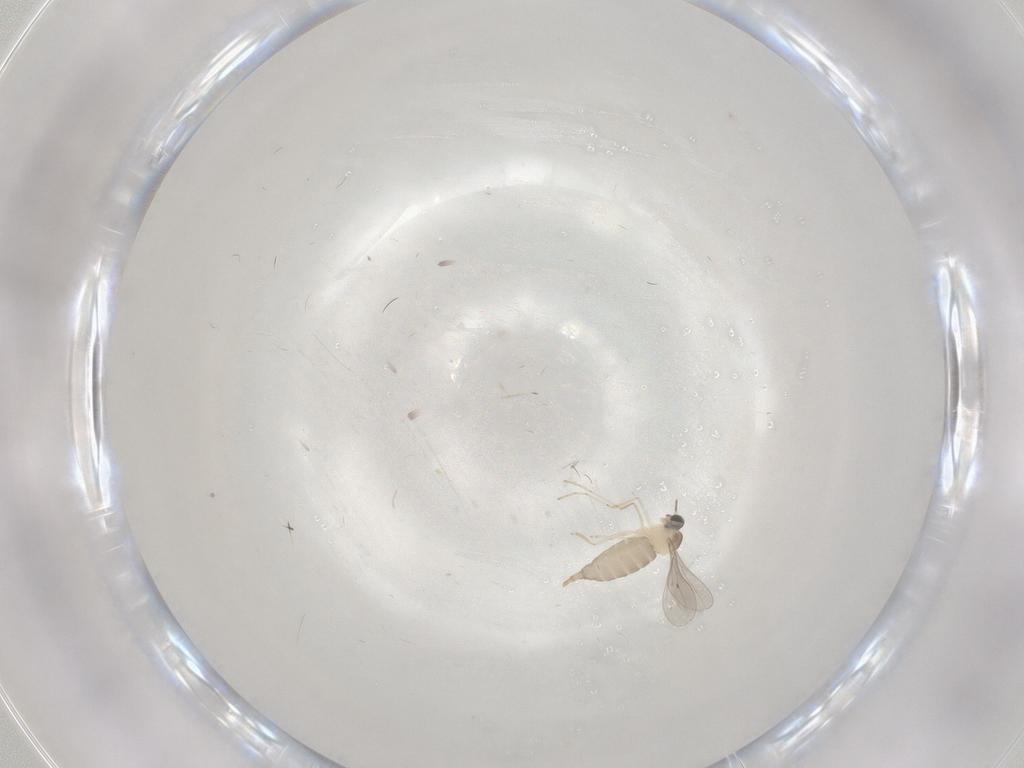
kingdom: Animalia
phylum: Arthropoda
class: Insecta
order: Diptera
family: Cecidomyiidae
